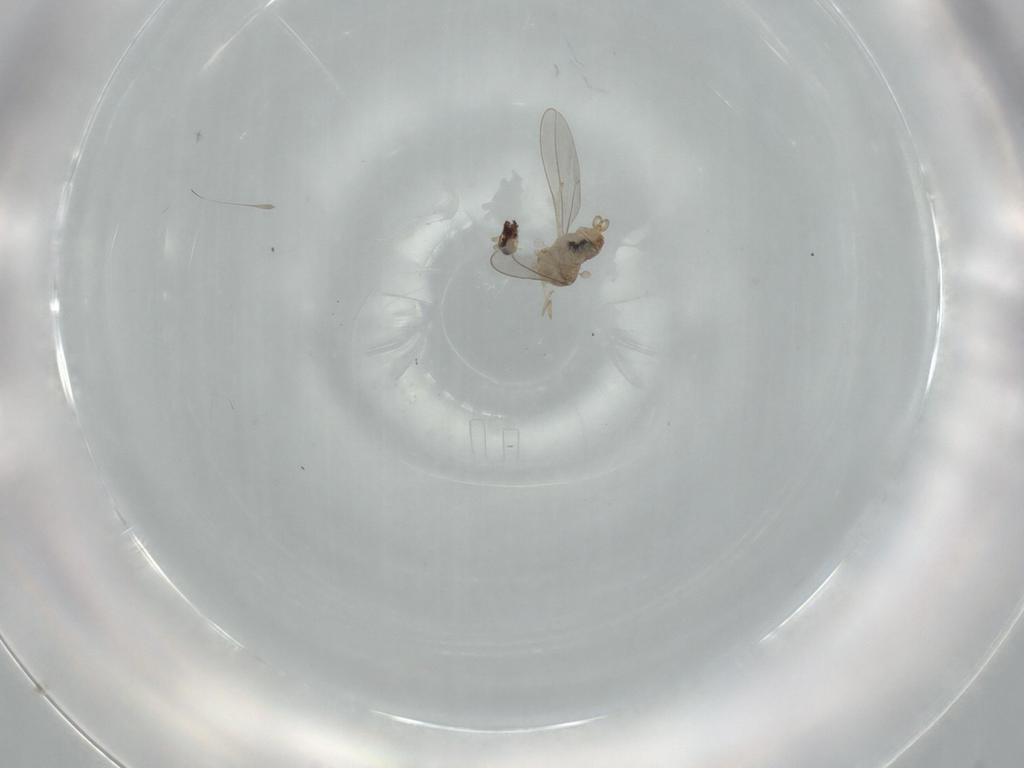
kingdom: Animalia
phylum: Arthropoda
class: Insecta
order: Diptera
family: Cecidomyiidae
